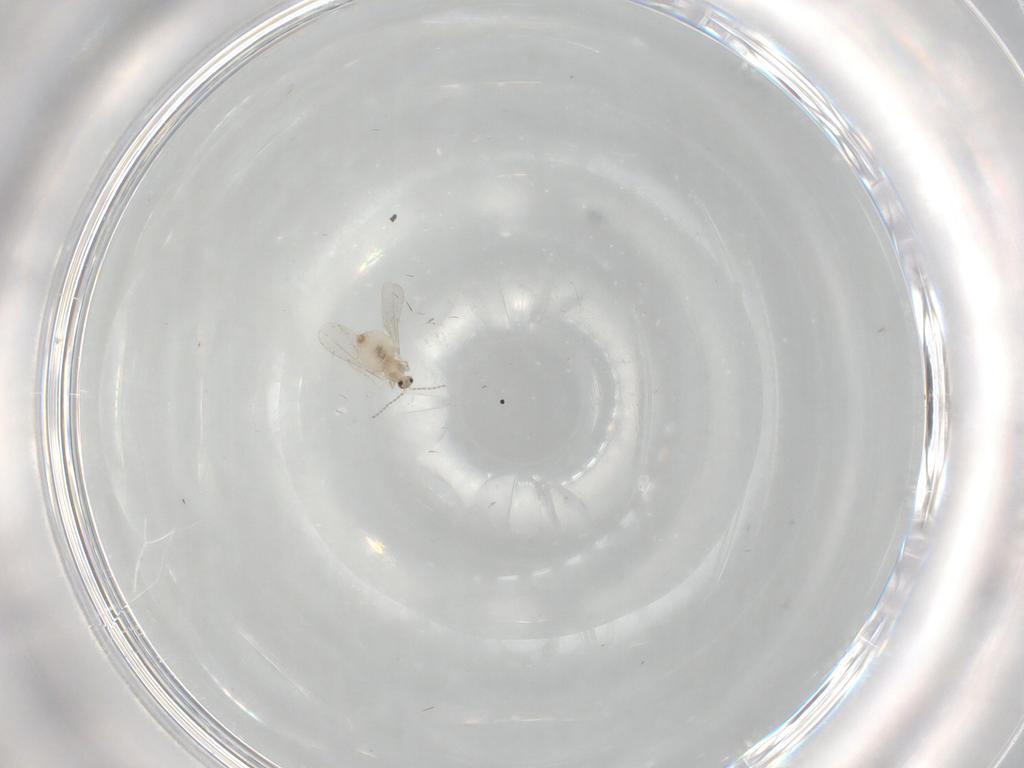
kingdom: Animalia
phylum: Arthropoda
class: Insecta
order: Diptera
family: Cecidomyiidae
